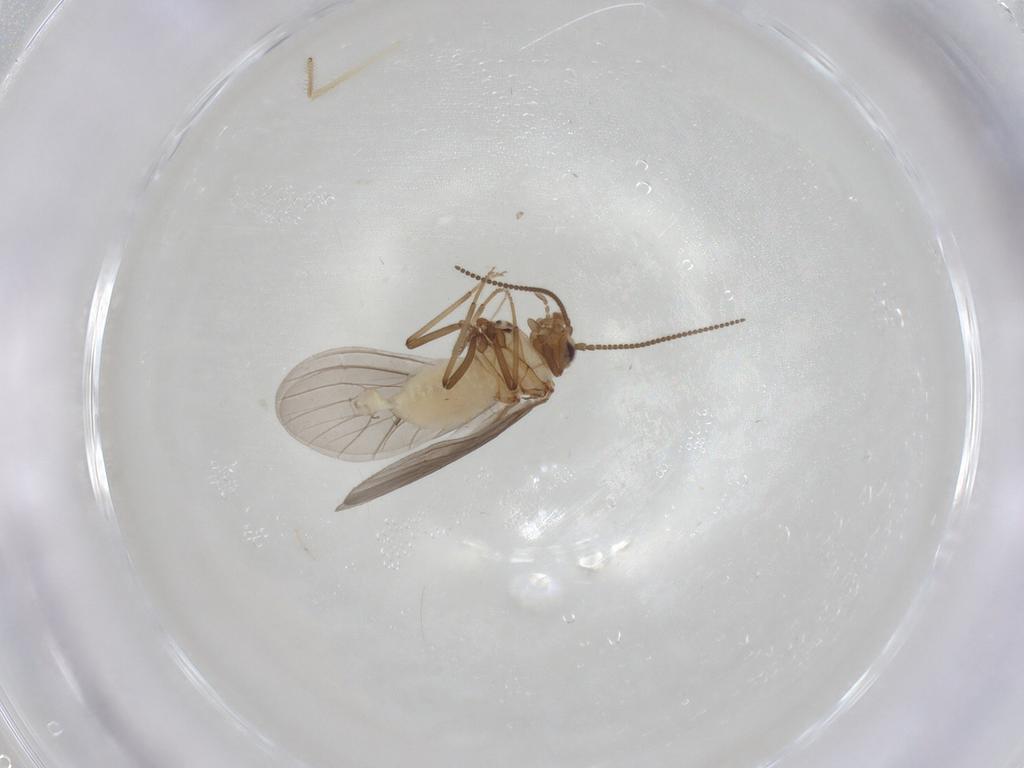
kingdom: Animalia
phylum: Arthropoda
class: Insecta
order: Neuroptera
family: Coniopterygidae
